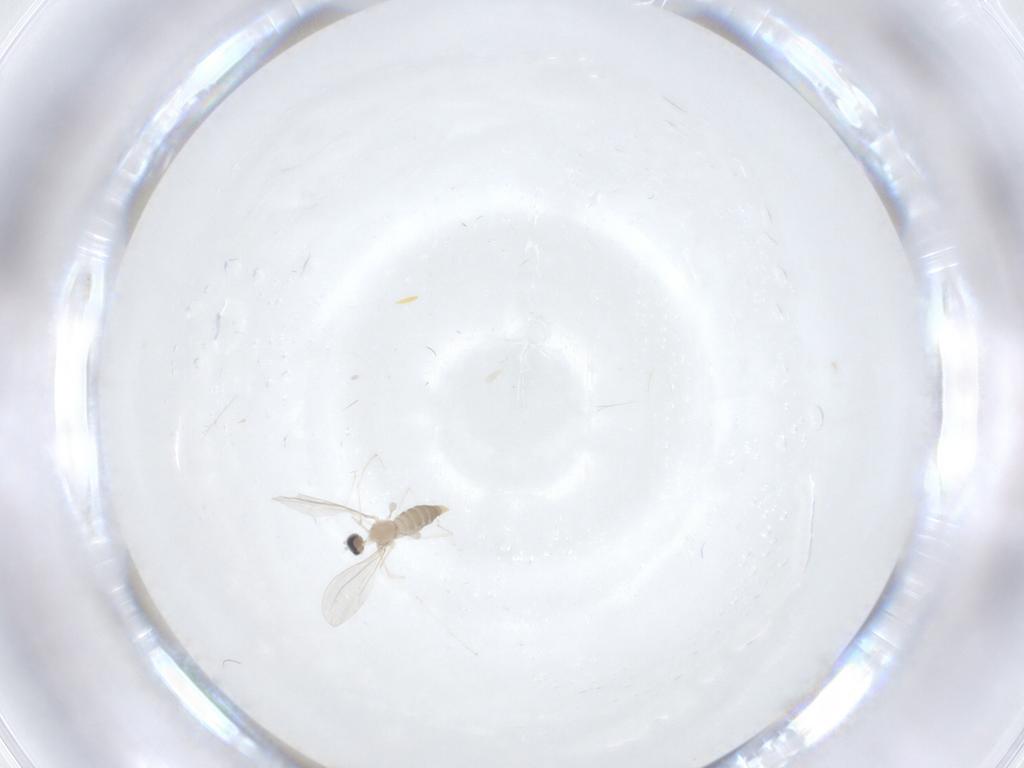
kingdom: Animalia
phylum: Arthropoda
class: Insecta
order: Diptera
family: Cecidomyiidae
